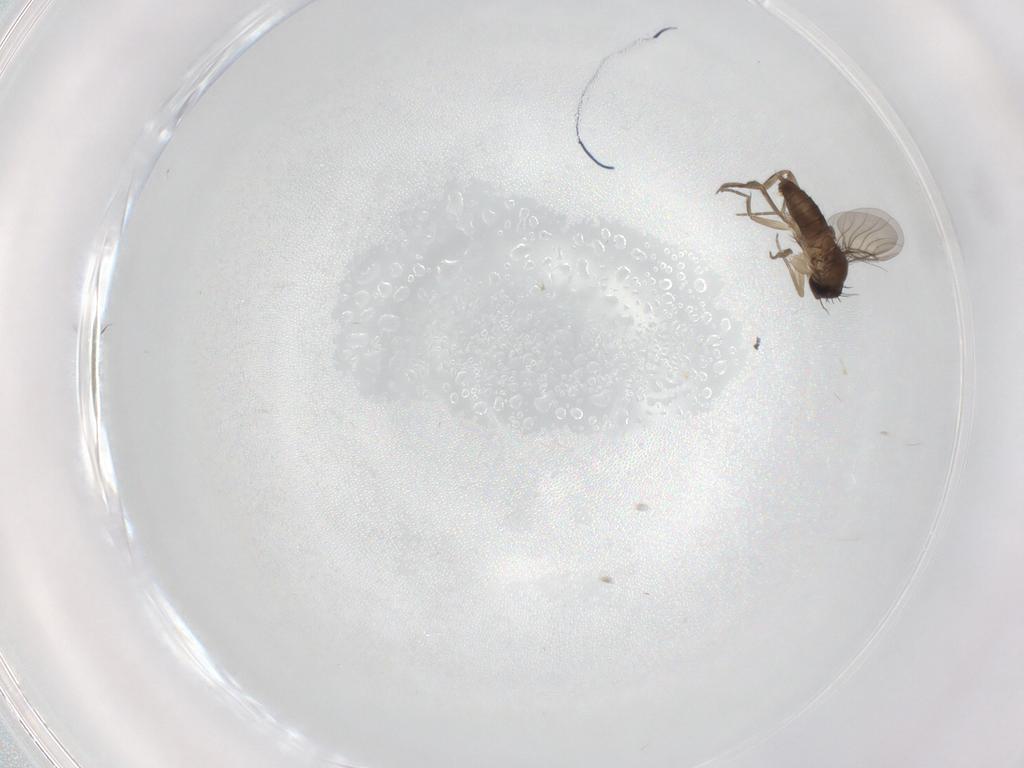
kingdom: Animalia
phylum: Arthropoda
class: Insecta
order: Diptera
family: Phoridae
